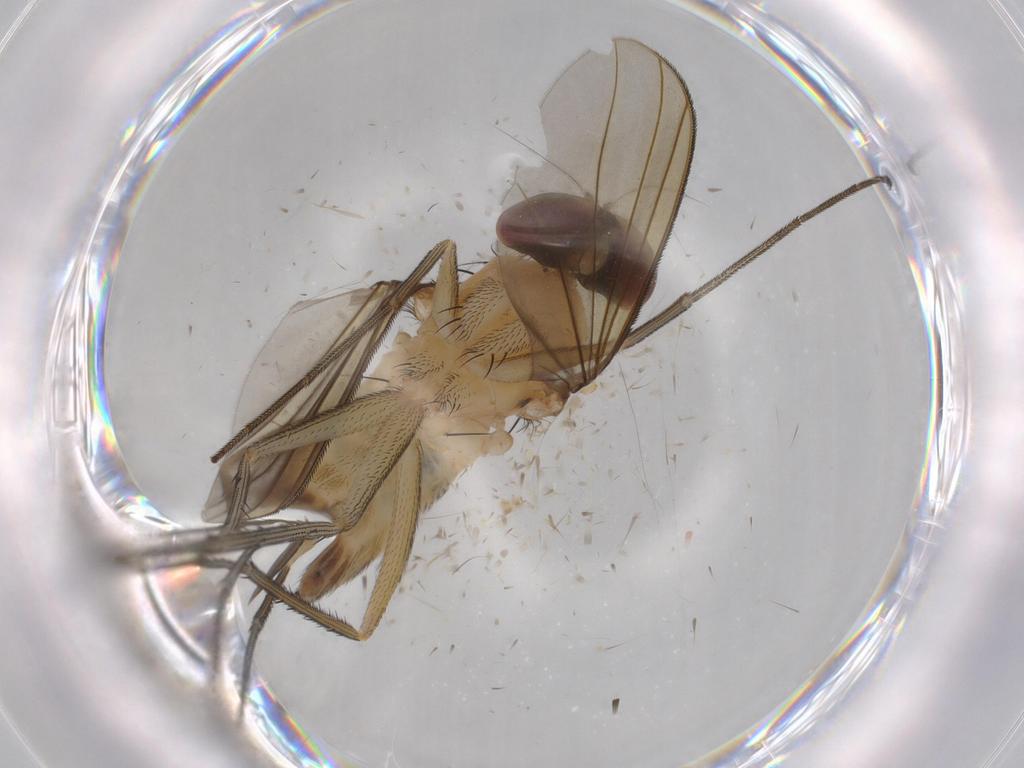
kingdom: Animalia
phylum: Arthropoda
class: Insecta
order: Diptera
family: Dolichopodidae
